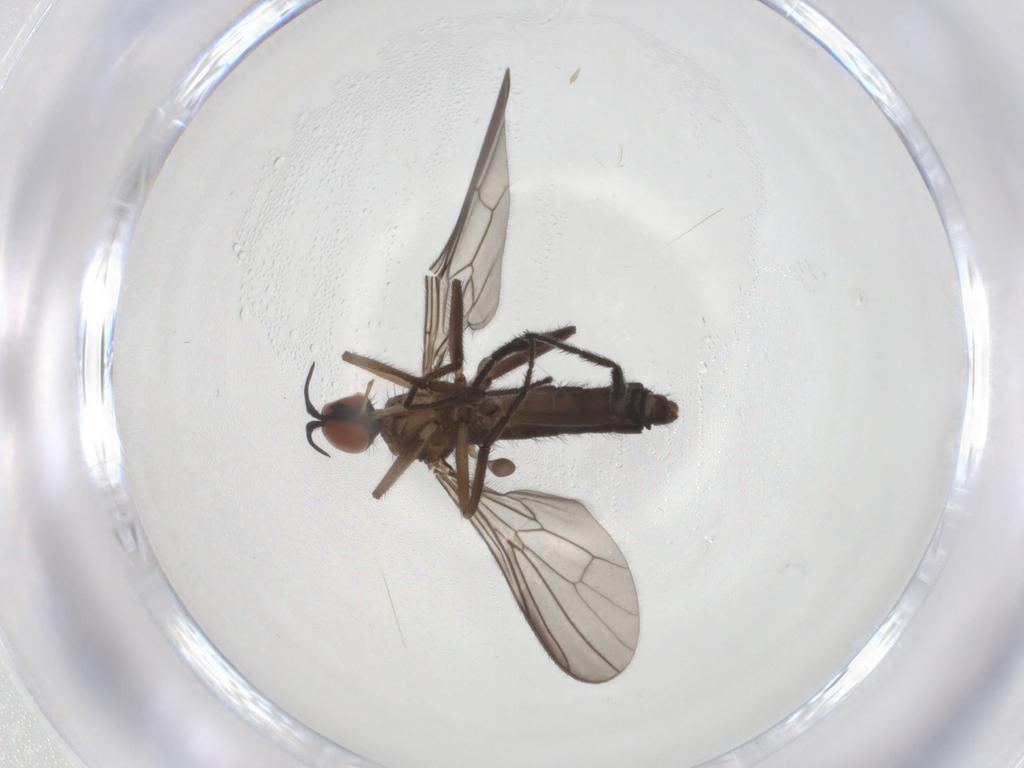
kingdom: Animalia
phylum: Arthropoda
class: Insecta
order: Diptera
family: Empididae
